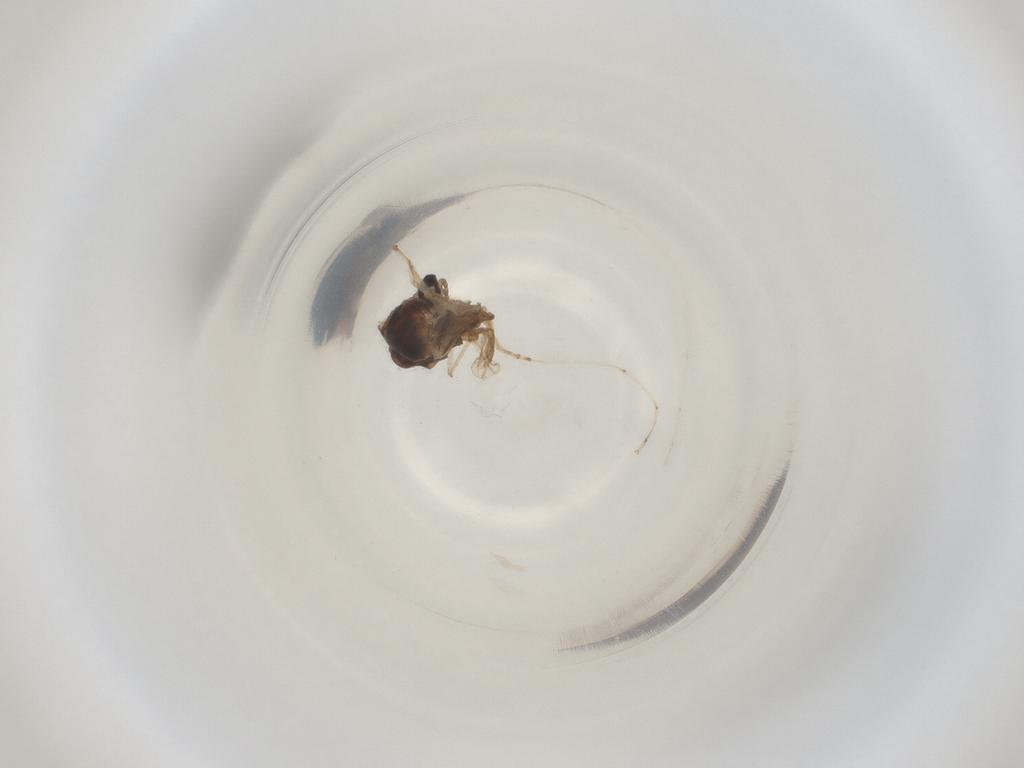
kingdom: Animalia
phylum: Arthropoda
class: Insecta
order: Diptera
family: Cecidomyiidae
